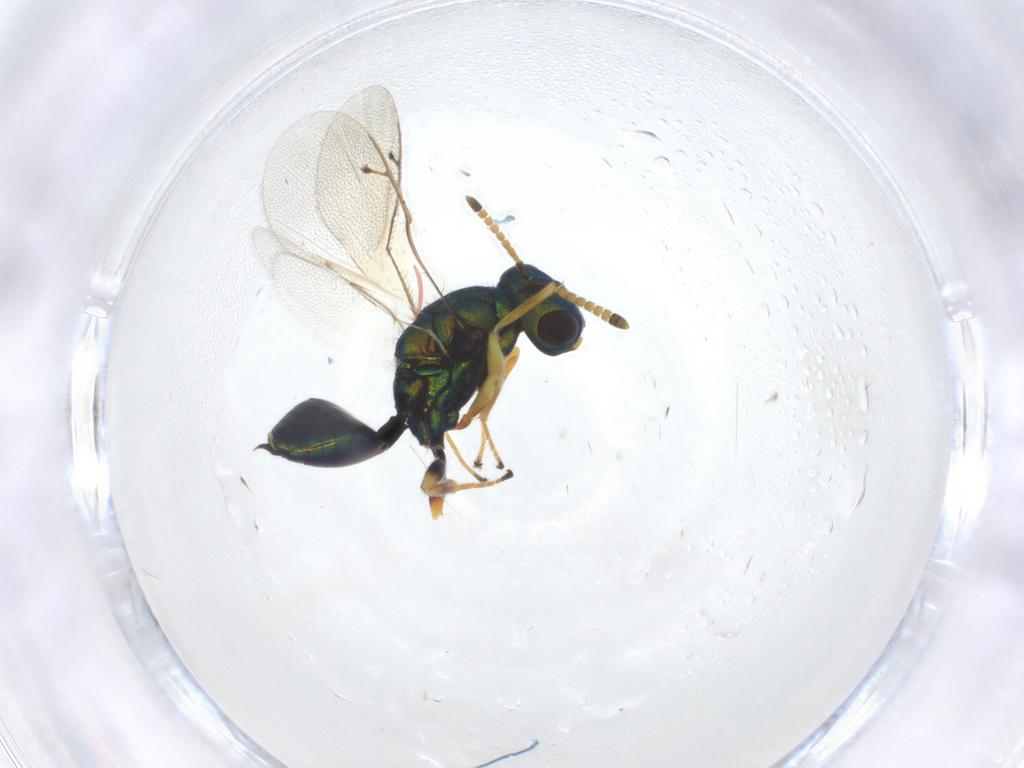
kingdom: Animalia
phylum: Arthropoda
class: Insecta
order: Hymenoptera
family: Pteromalidae
